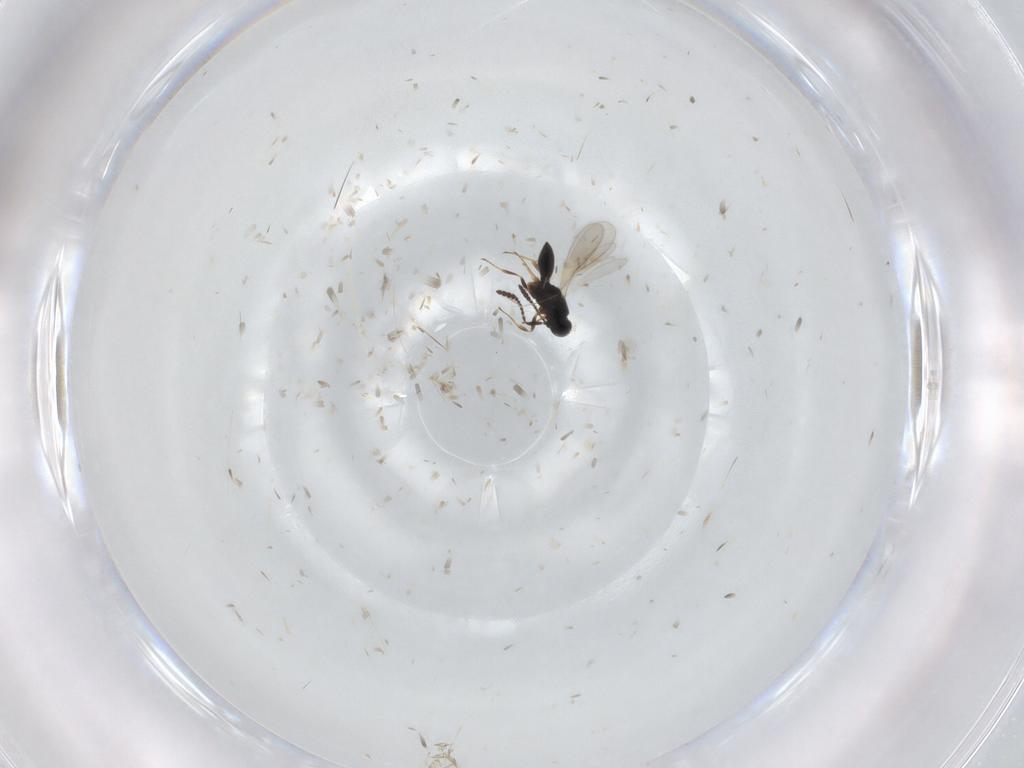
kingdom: Animalia
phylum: Arthropoda
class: Insecta
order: Hymenoptera
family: Scelionidae
